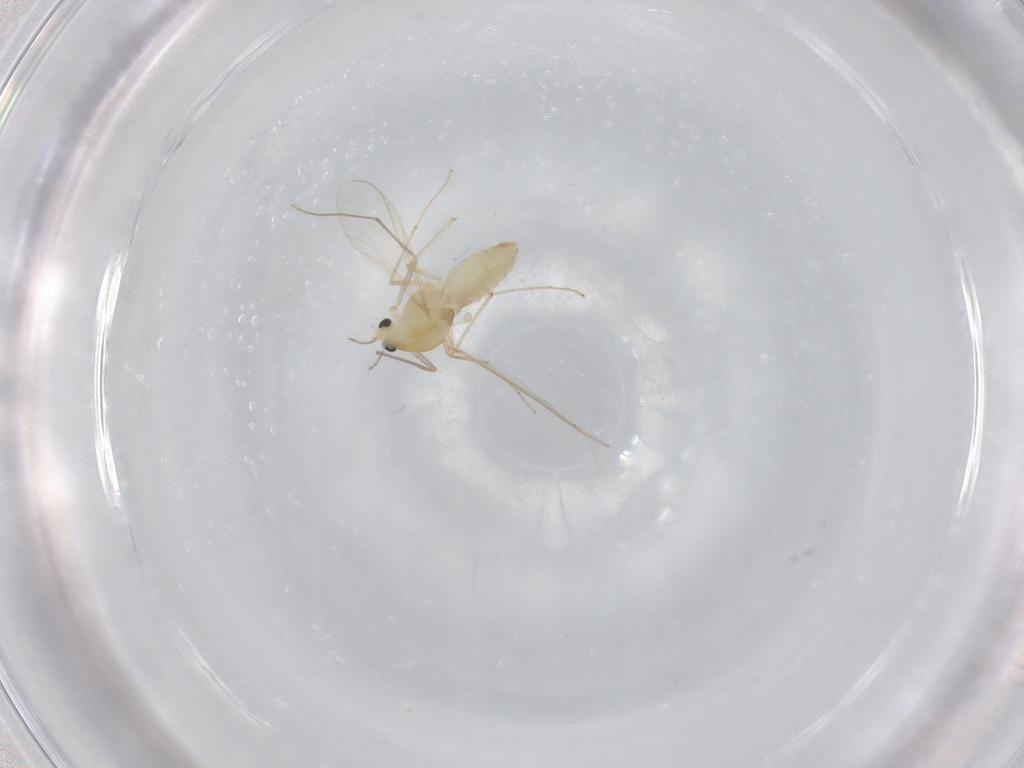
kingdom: Animalia
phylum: Arthropoda
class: Insecta
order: Diptera
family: Chironomidae
